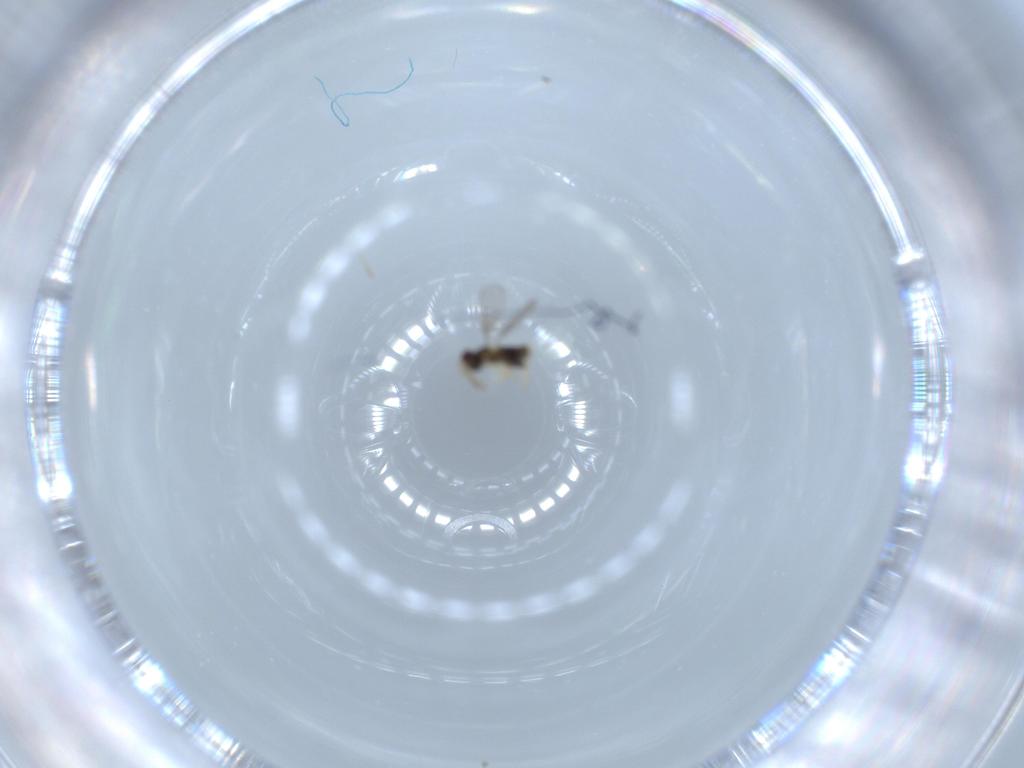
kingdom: Animalia
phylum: Arthropoda
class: Insecta
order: Hymenoptera
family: Aphelinidae
